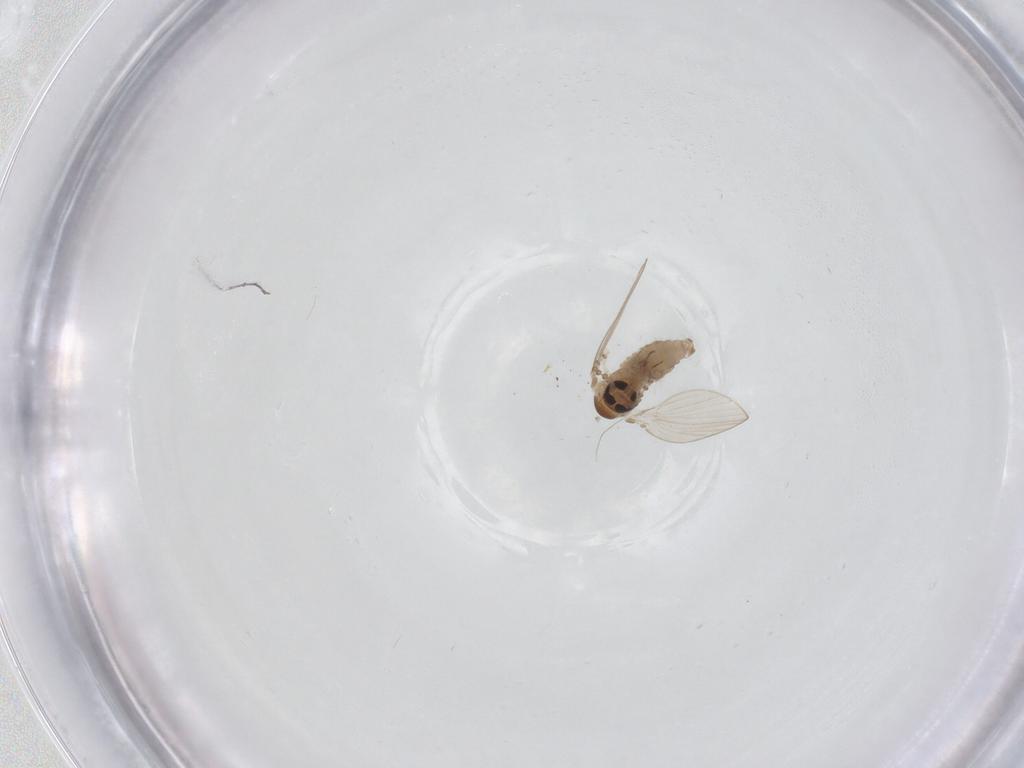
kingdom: Animalia
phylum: Arthropoda
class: Insecta
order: Diptera
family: Psychodidae
